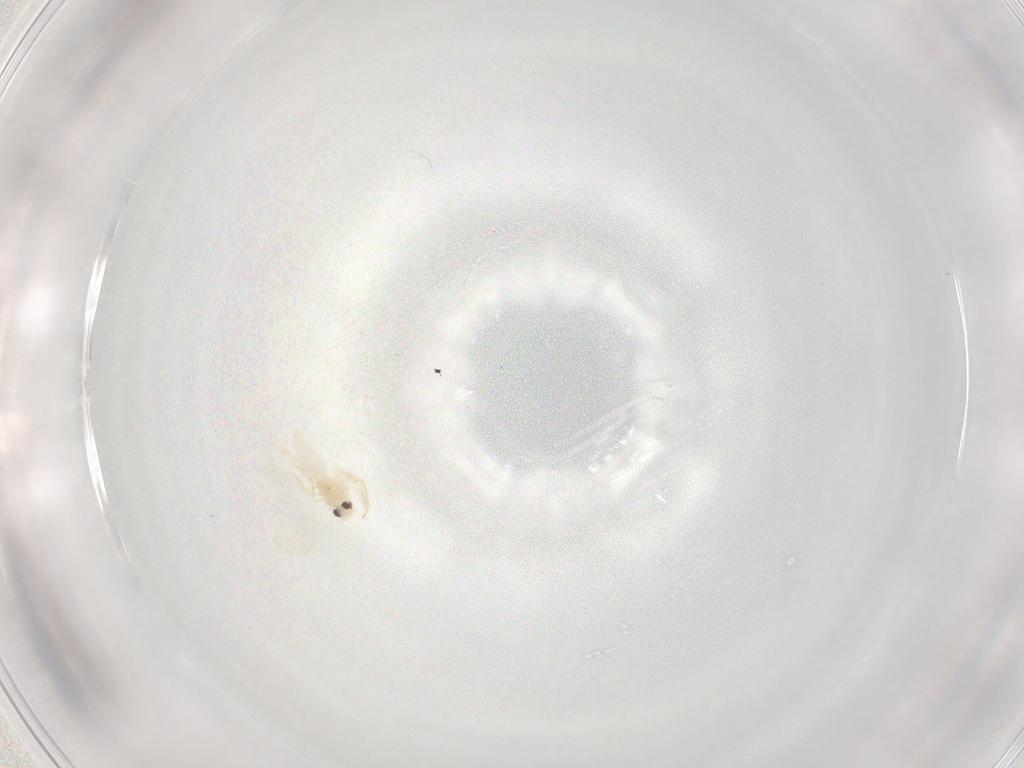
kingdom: Animalia
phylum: Arthropoda
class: Insecta
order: Hemiptera
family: Aleyrodidae
